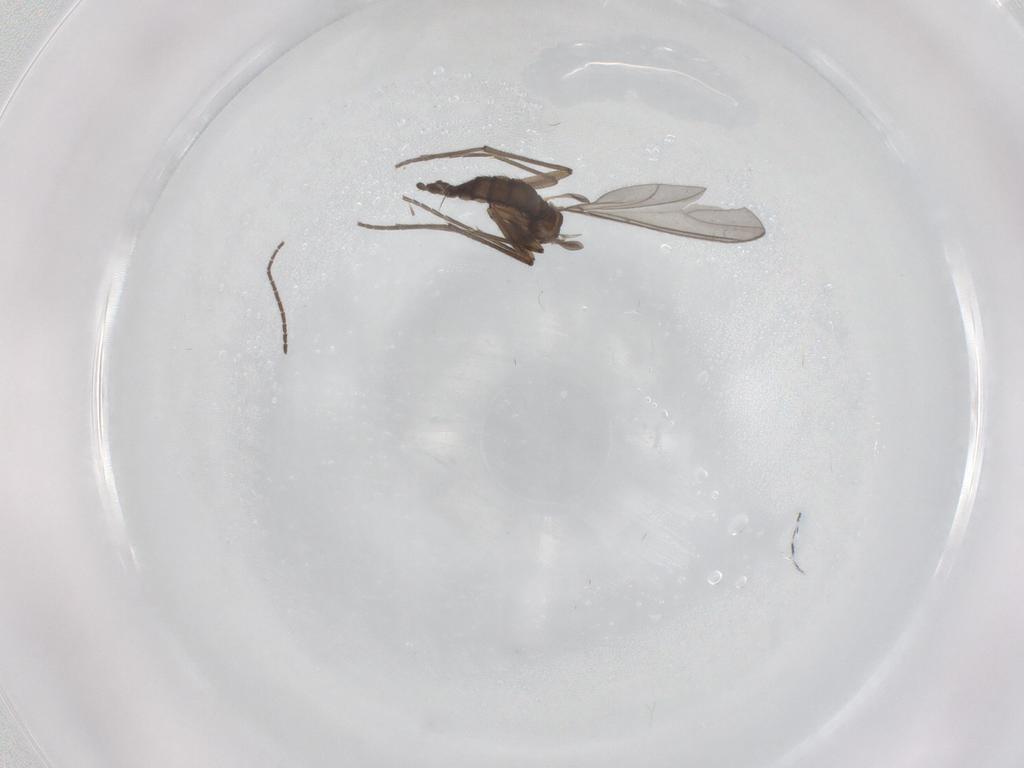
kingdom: Animalia
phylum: Arthropoda
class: Insecta
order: Diptera
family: Sciaridae
